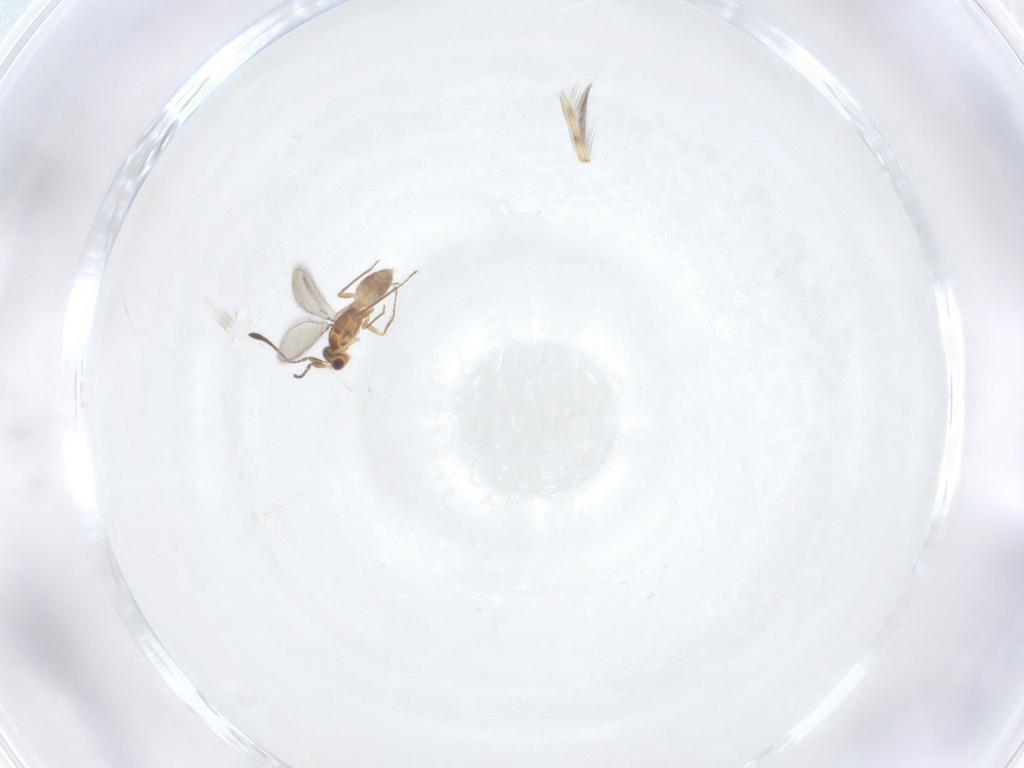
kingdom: Animalia
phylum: Arthropoda
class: Insecta
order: Hymenoptera
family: Mymaridae
